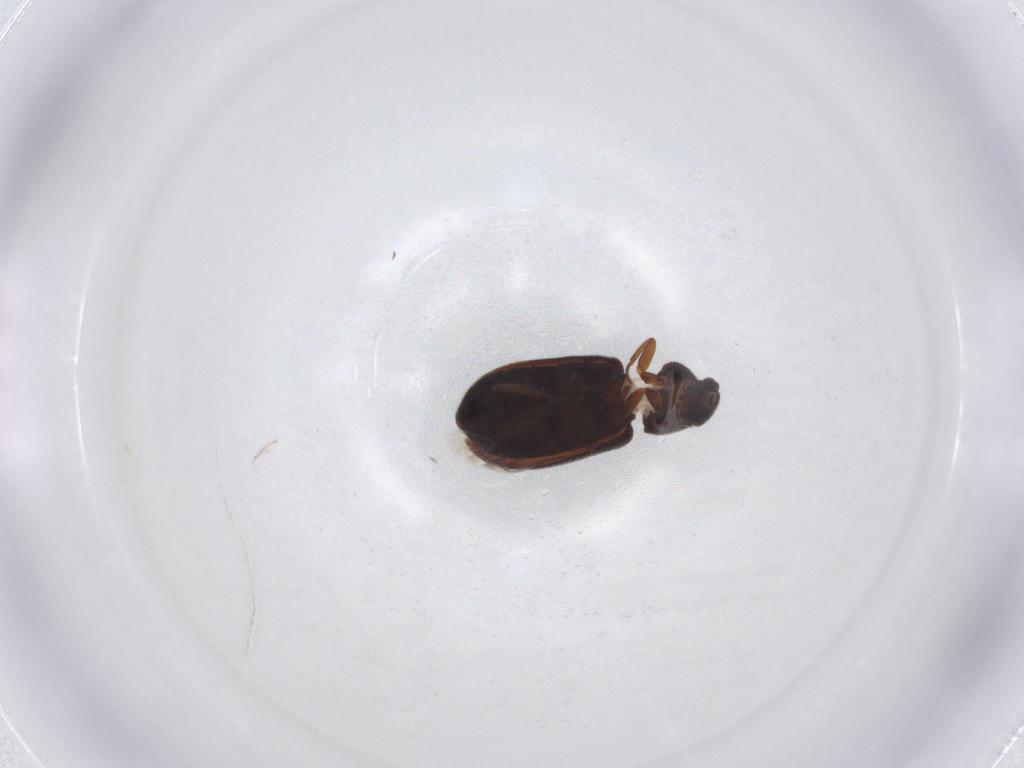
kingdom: Animalia
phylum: Arthropoda
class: Insecta
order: Coleoptera
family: Rhadalidae
